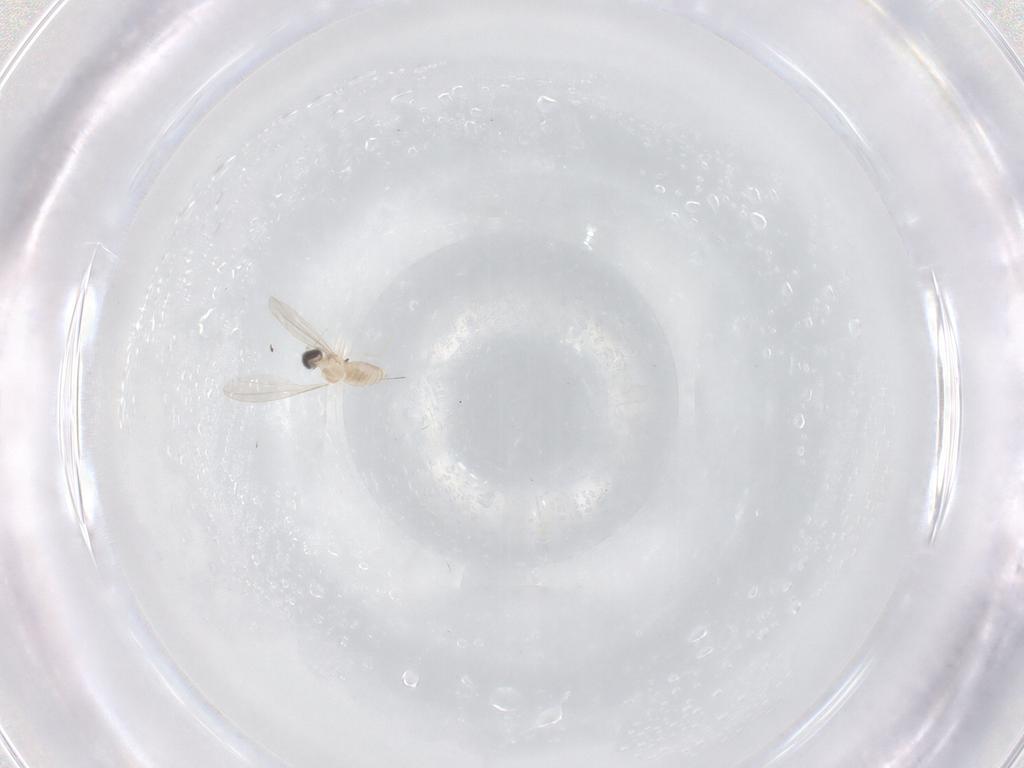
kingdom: Animalia
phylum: Arthropoda
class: Insecta
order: Diptera
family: Sciaridae
